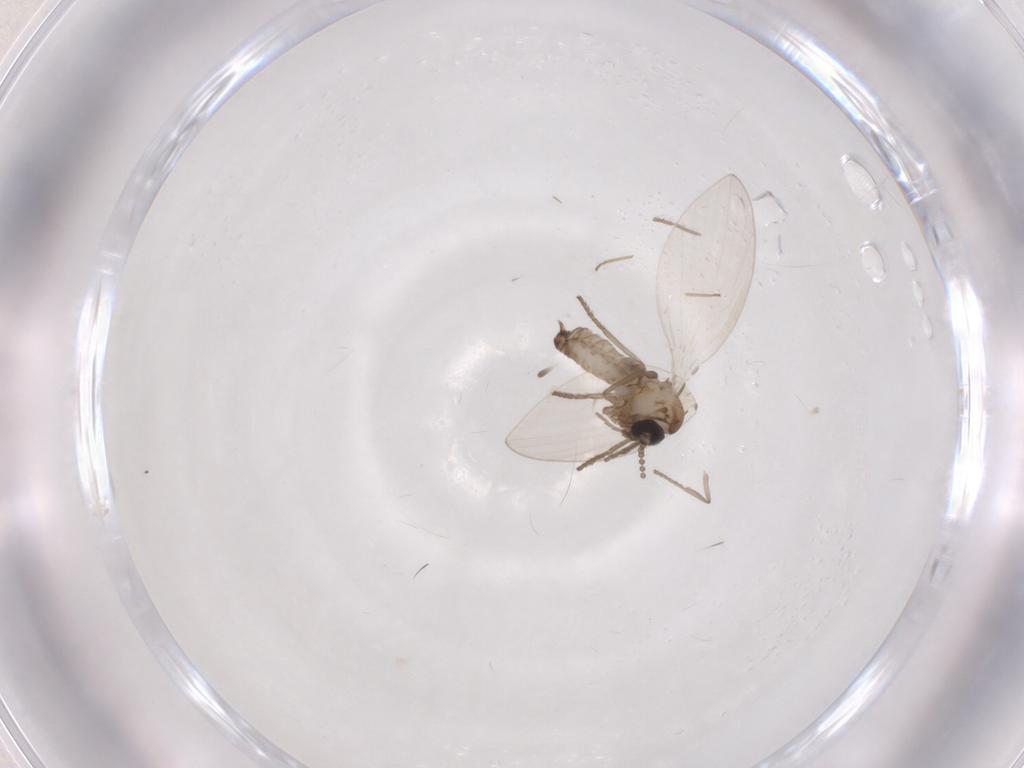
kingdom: Animalia
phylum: Arthropoda
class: Insecta
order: Diptera
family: Psychodidae
